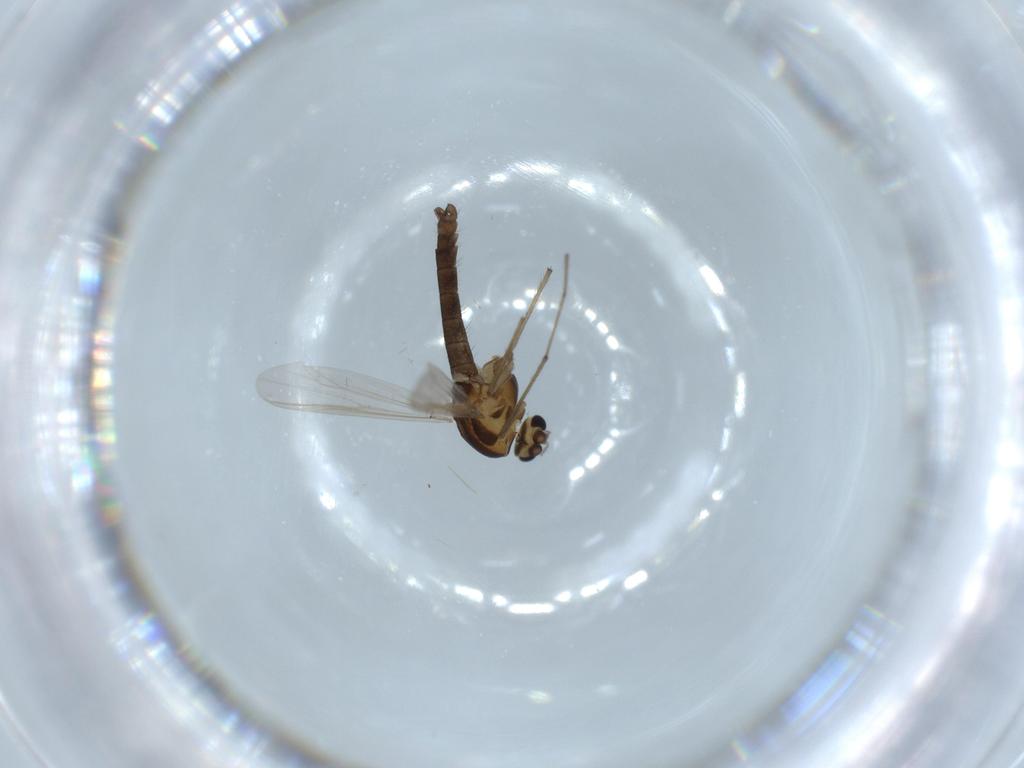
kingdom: Animalia
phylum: Arthropoda
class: Insecta
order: Diptera
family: Chironomidae
